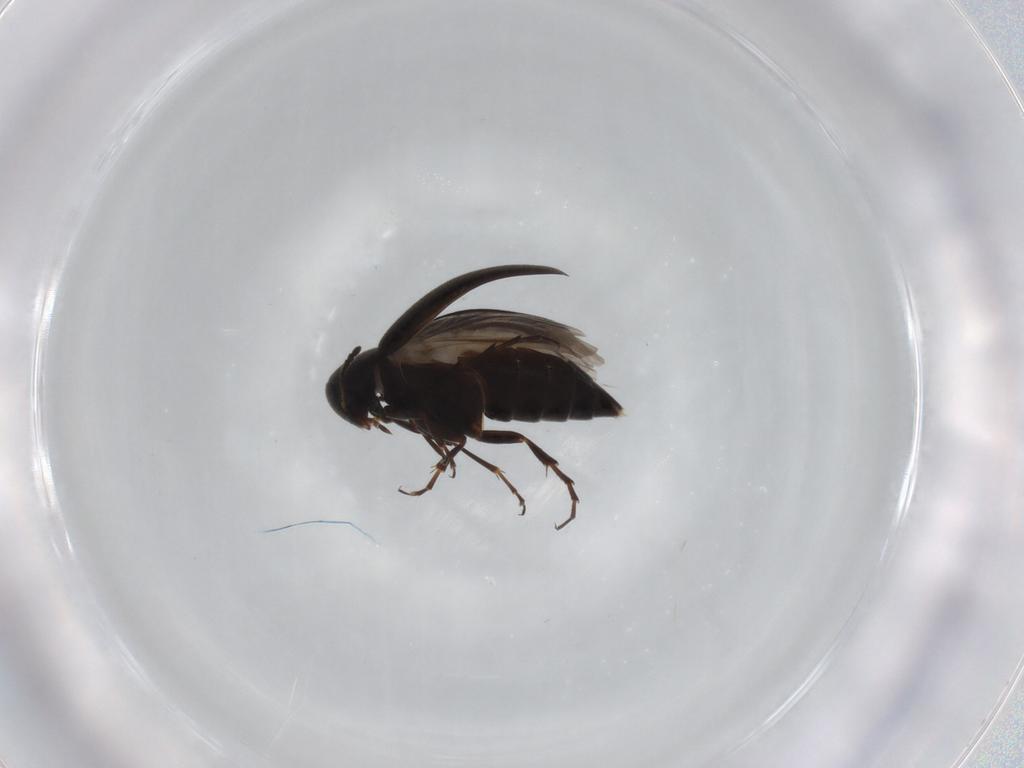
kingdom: Animalia
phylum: Arthropoda
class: Insecta
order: Coleoptera
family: Scraptiidae
